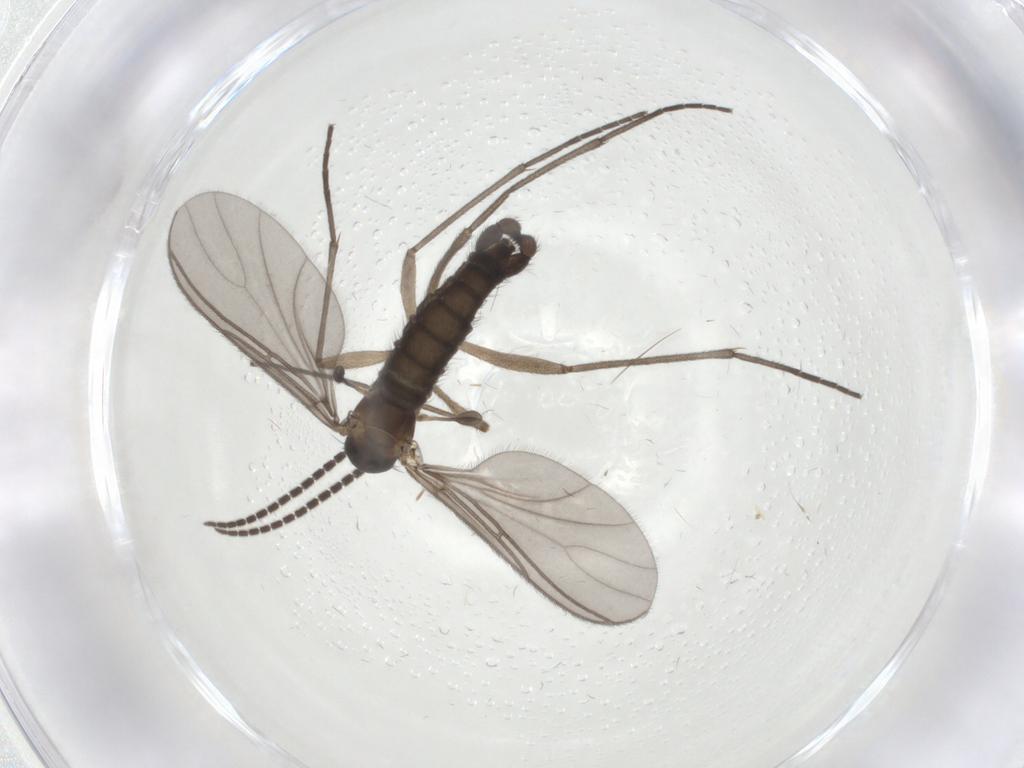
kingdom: Animalia
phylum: Arthropoda
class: Insecta
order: Diptera
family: Sciaridae
